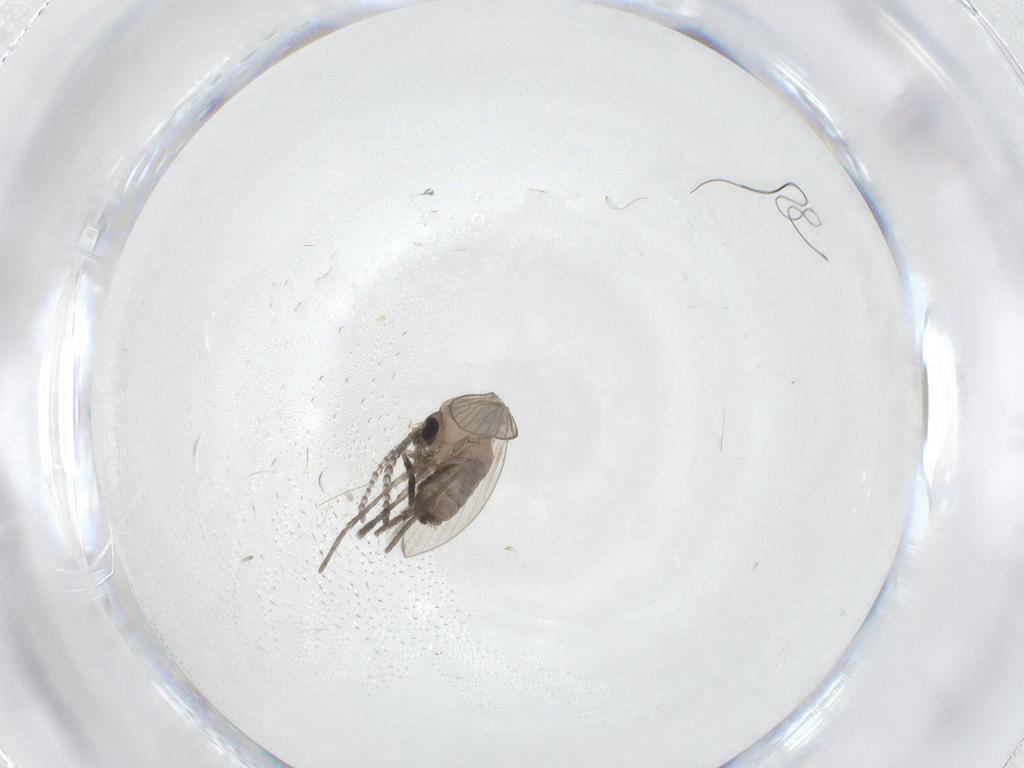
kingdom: Animalia
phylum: Arthropoda
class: Insecta
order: Diptera
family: Psychodidae
